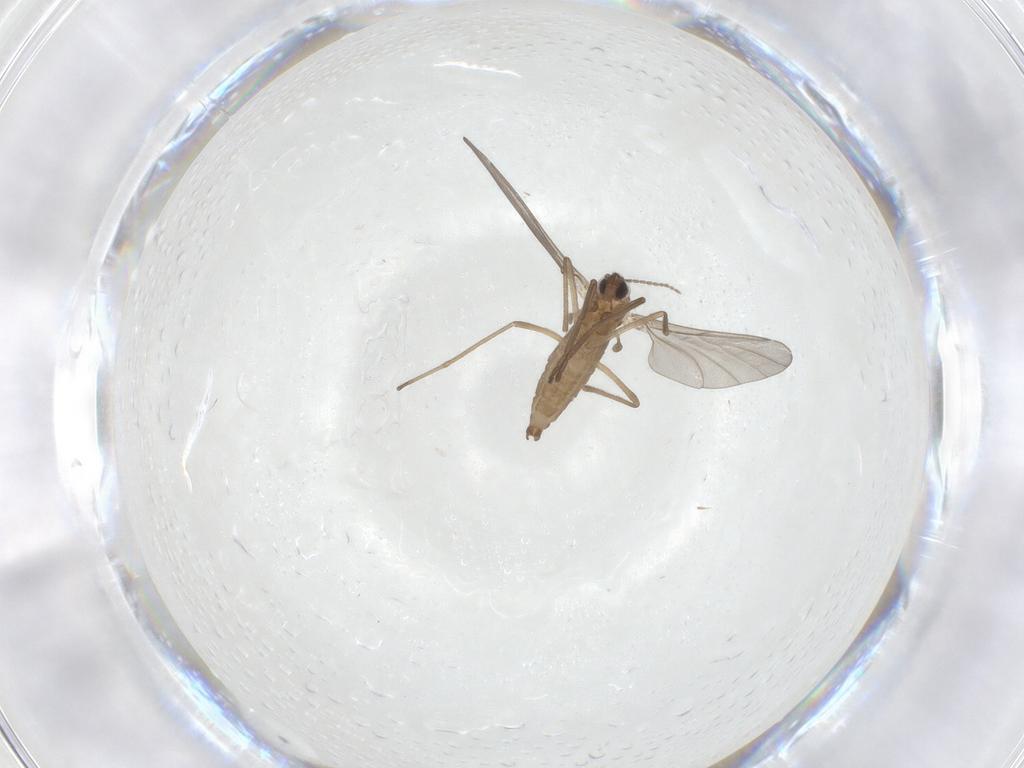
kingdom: Animalia
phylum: Arthropoda
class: Insecta
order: Diptera
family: Cecidomyiidae
